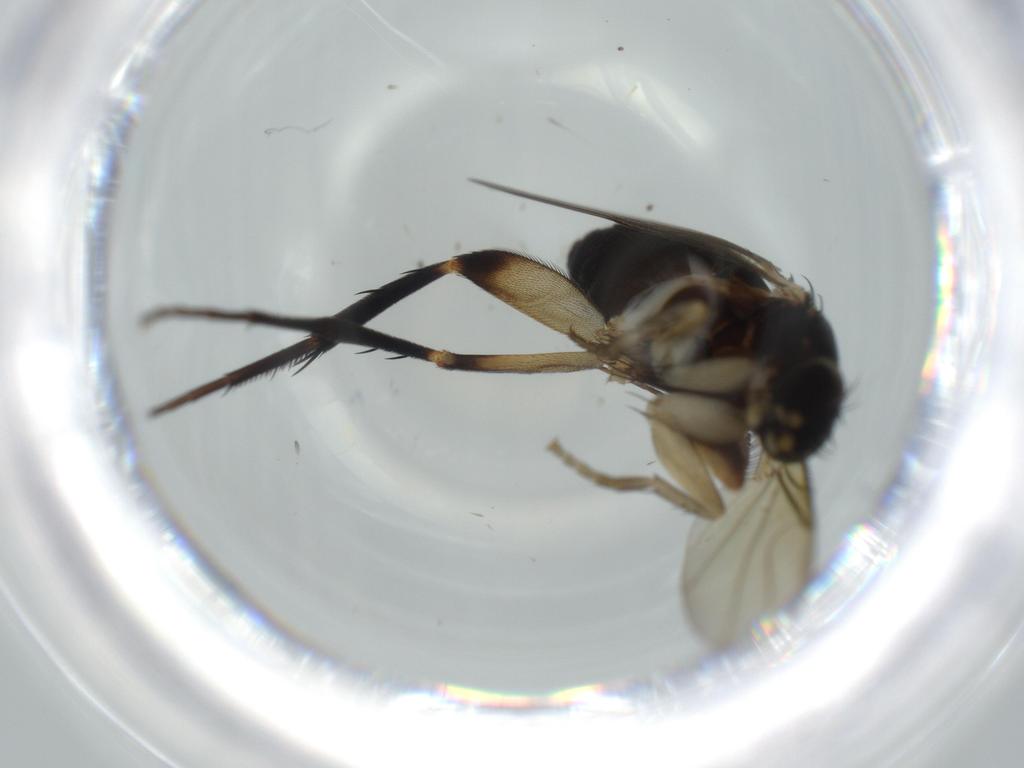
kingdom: Animalia
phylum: Arthropoda
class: Insecta
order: Diptera
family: Phoridae
